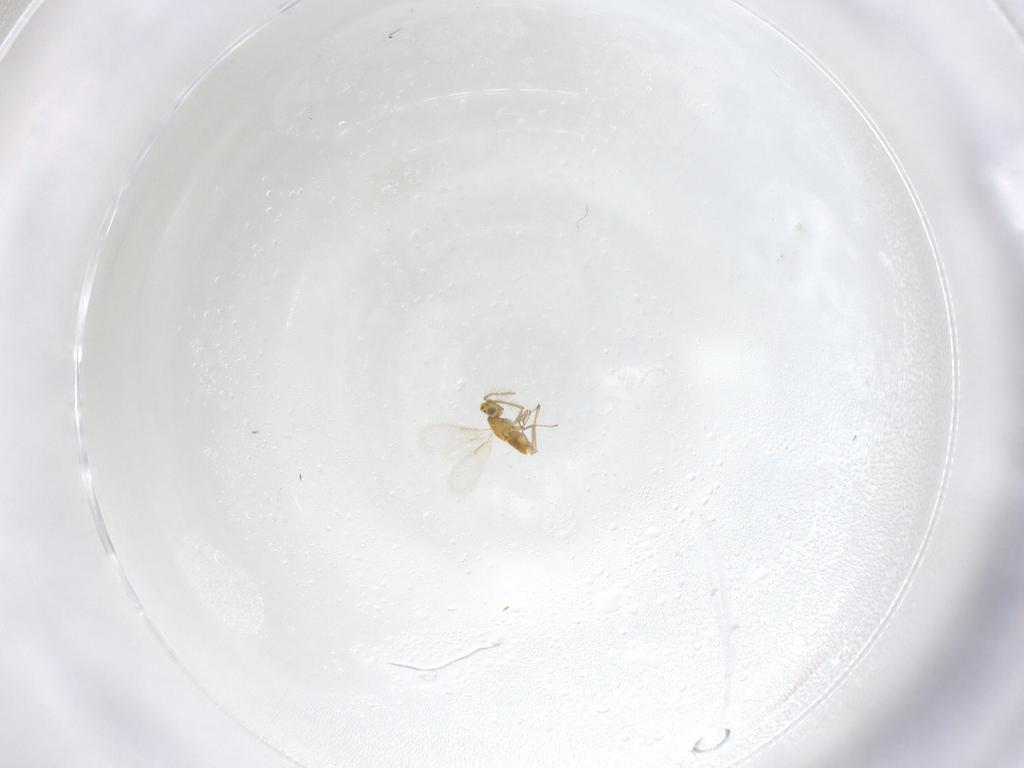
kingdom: Animalia
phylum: Arthropoda
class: Insecta
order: Hymenoptera
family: Aphelinidae
